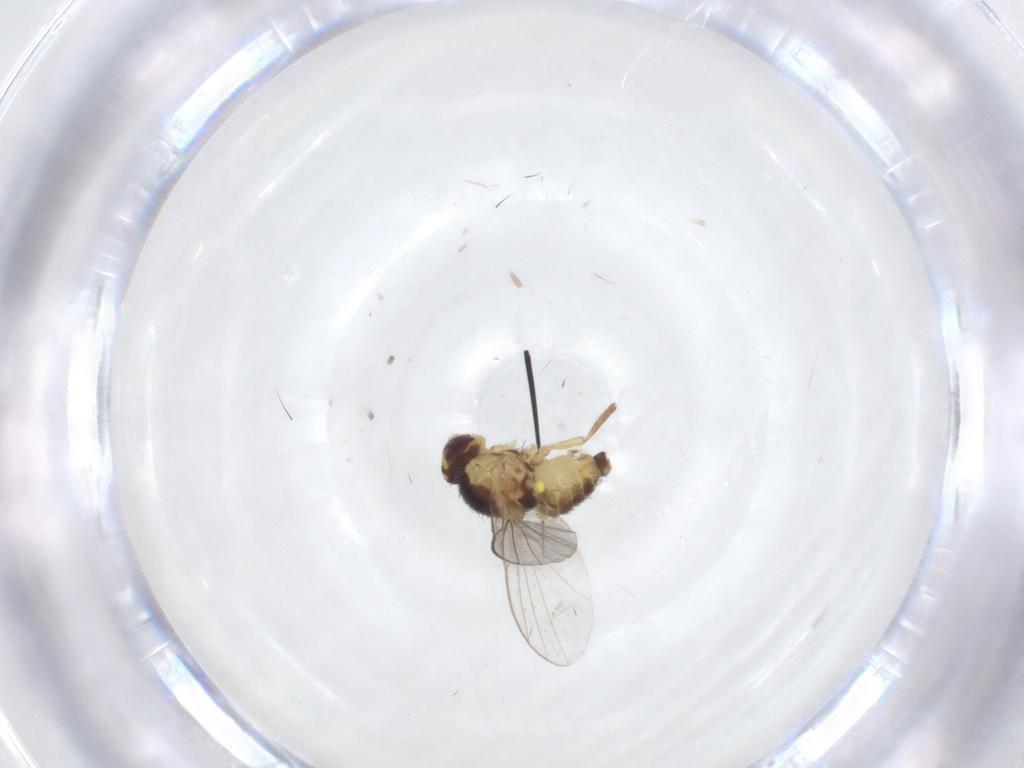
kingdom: Animalia
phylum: Arthropoda
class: Insecta
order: Diptera
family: Agromyzidae
